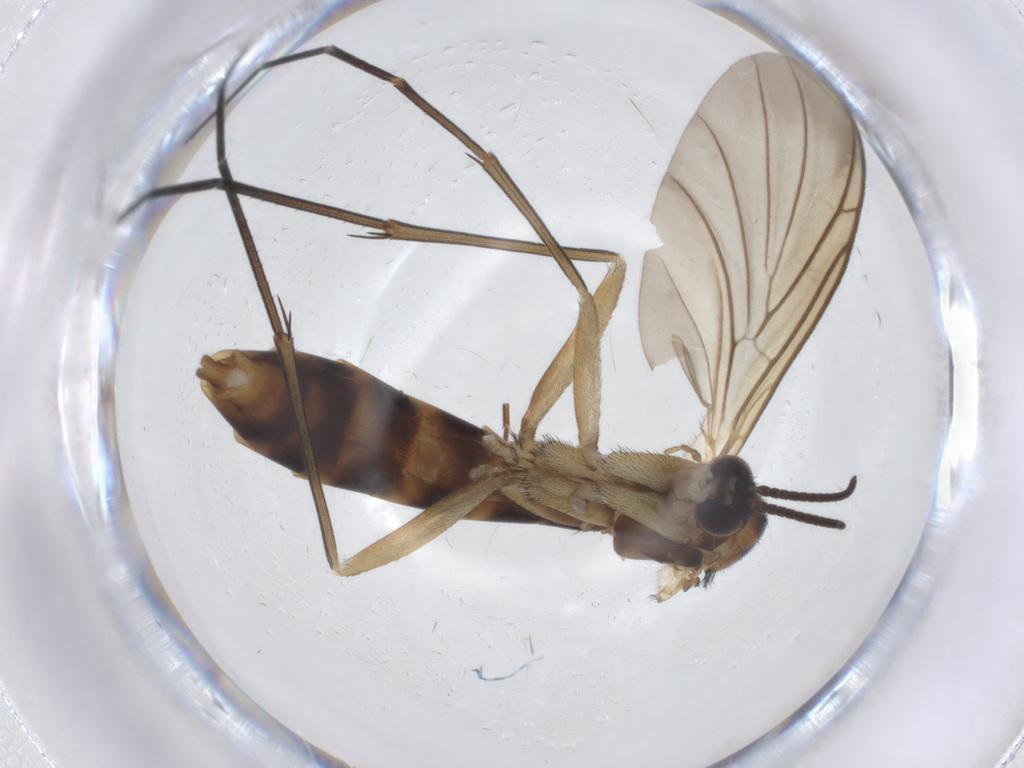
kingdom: Animalia
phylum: Arthropoda
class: Insecta
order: Diptera
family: Keroplatidae
